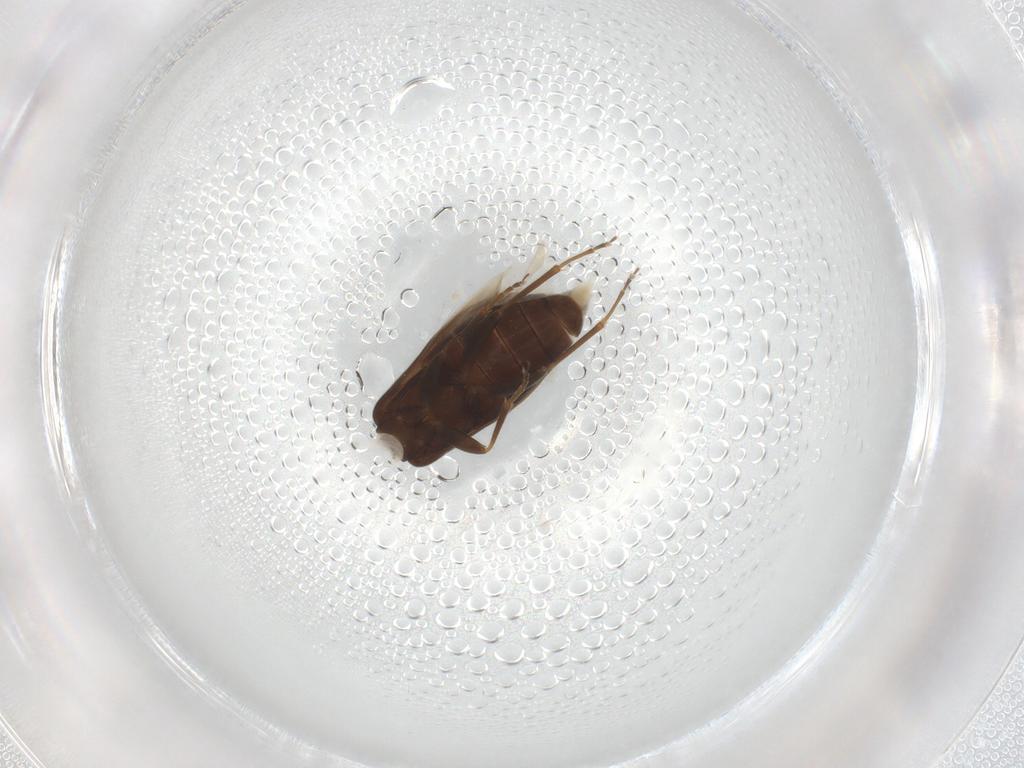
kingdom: Animalia
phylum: Arthropoda
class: Insecta
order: Coleoptera
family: Scraptiidae
